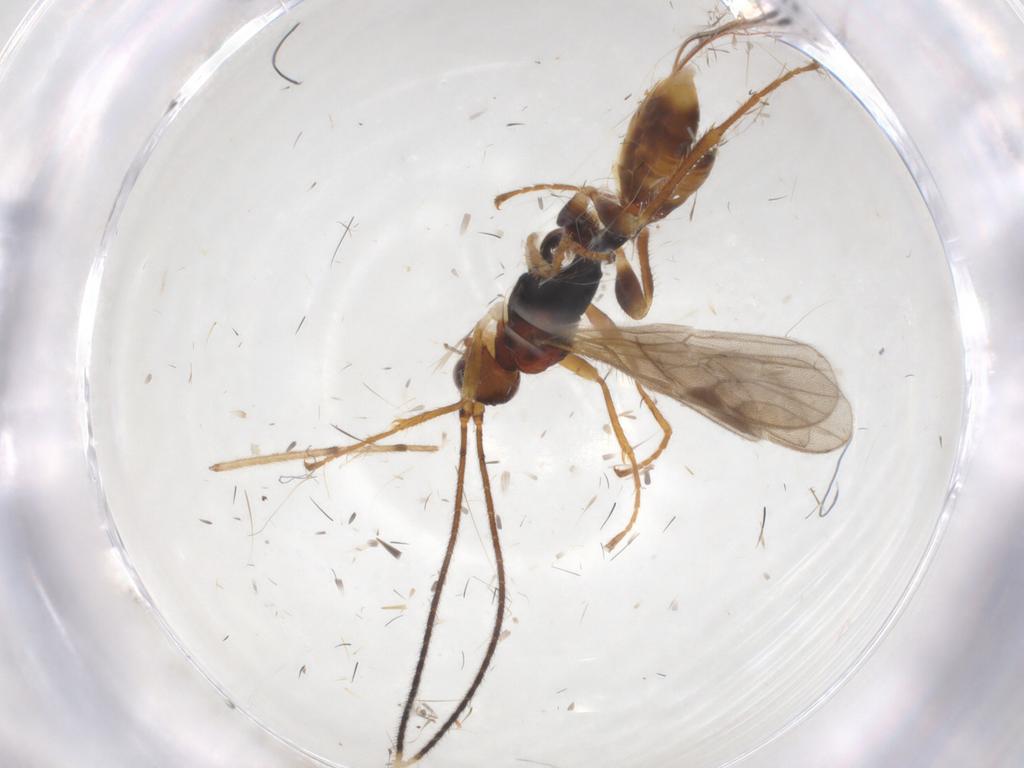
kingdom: Animalia
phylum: Arthropoda
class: Insecta
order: Hymenoptera
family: Braconidae
